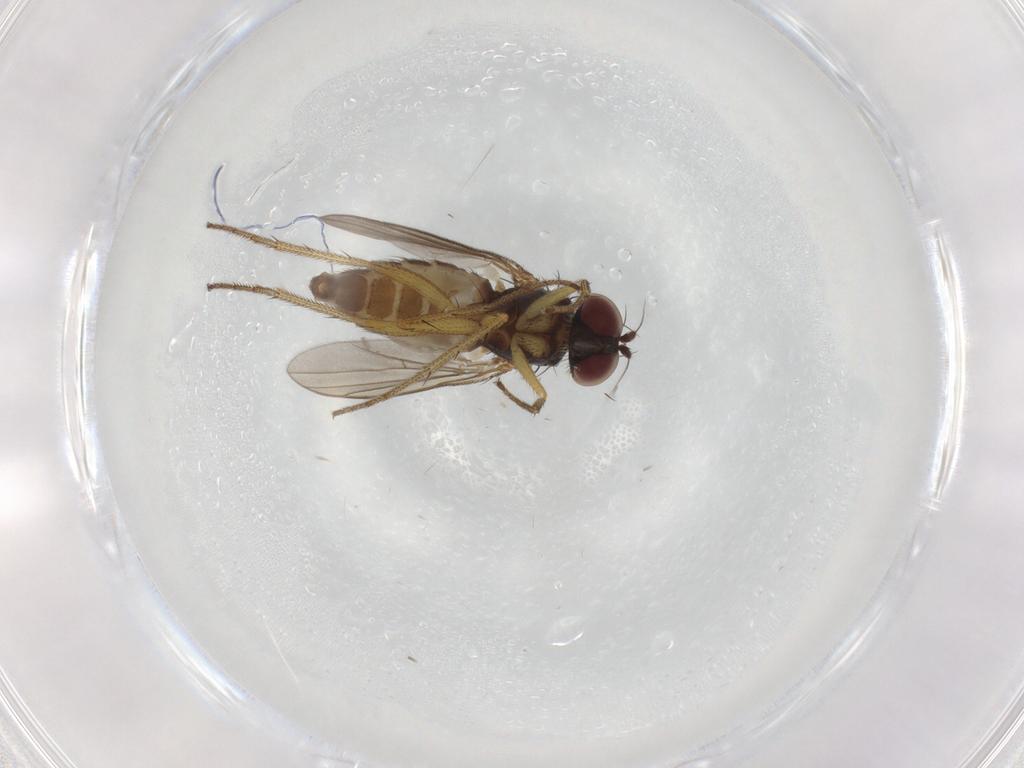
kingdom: Animalia
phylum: Arthropoda
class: Insecta
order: Diptera
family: Dolichopodidae
